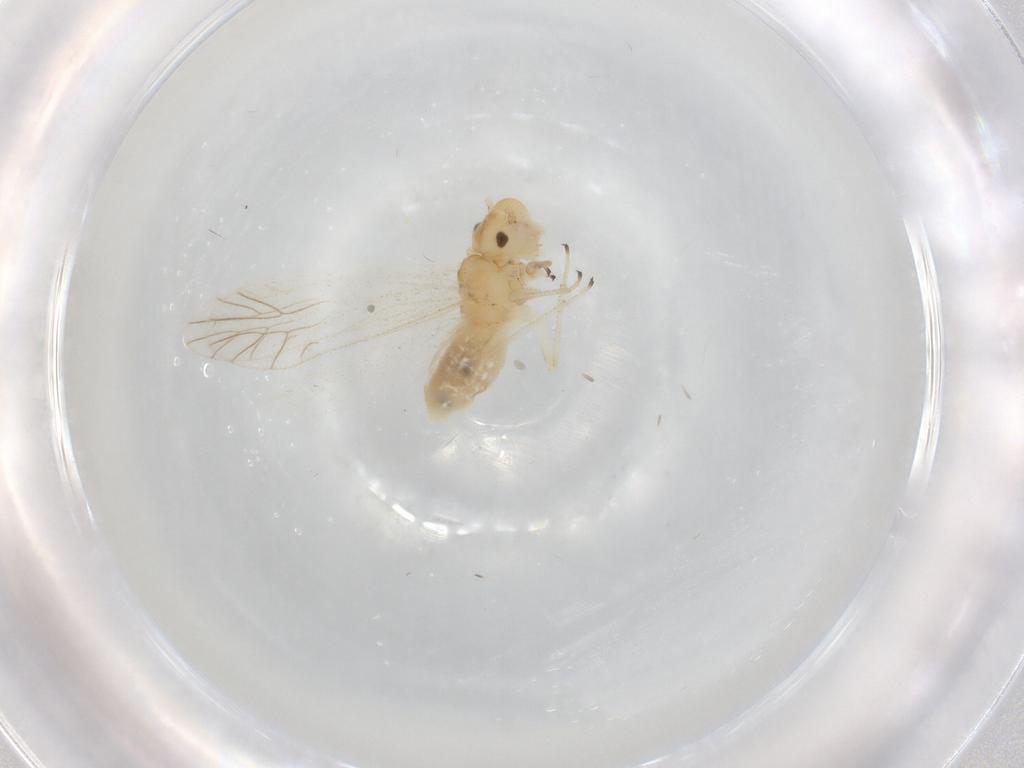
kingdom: Animalia
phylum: Arthropoda
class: Insecta
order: Psocodea
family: Caeciliusidae
